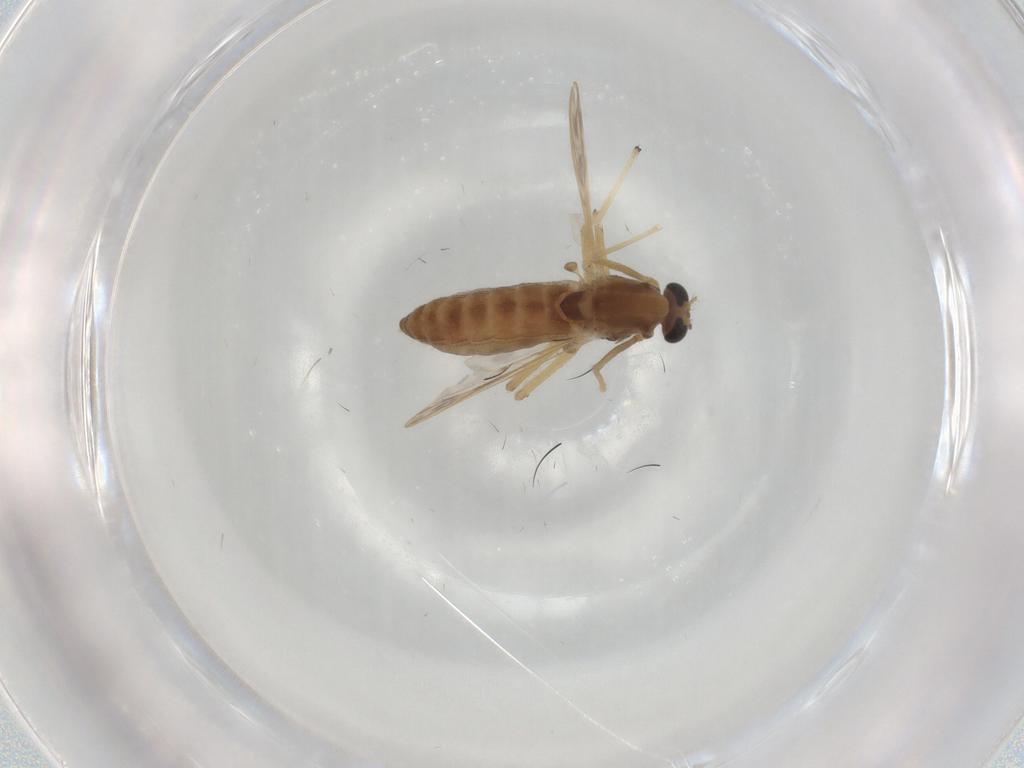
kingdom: Animalia
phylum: Arthropoda
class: Insecta
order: Diptera
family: Chironomidae
